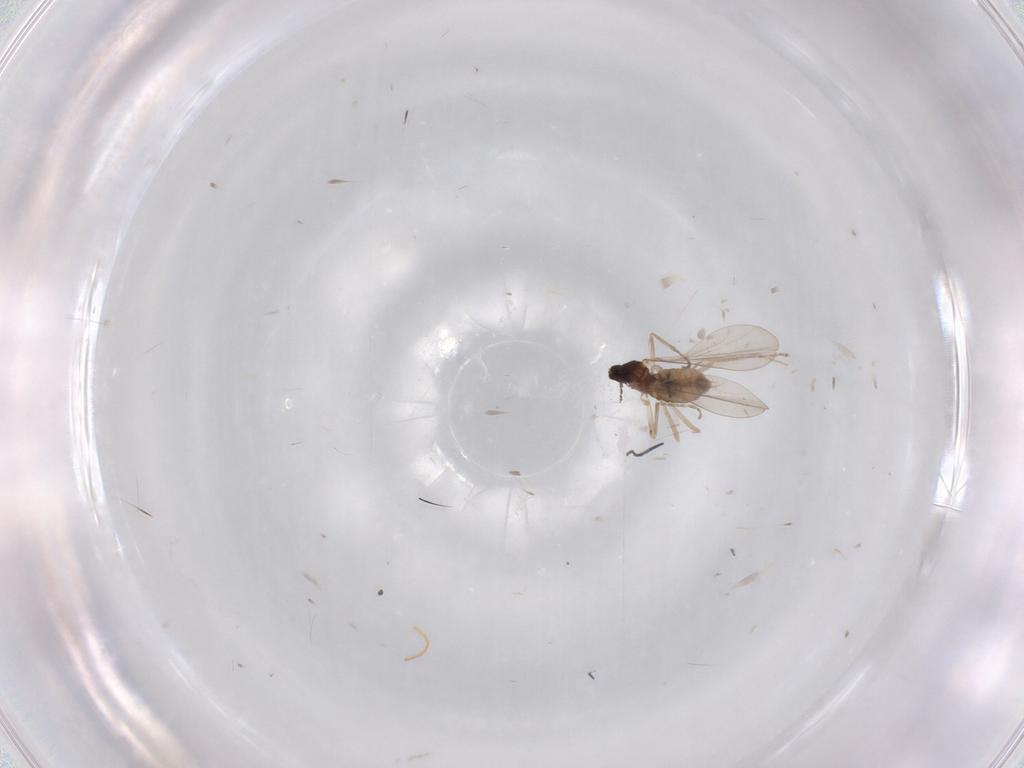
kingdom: Animalia
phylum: Arthropoda
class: Insecta
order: Diptera
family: Cecidomyiidae
